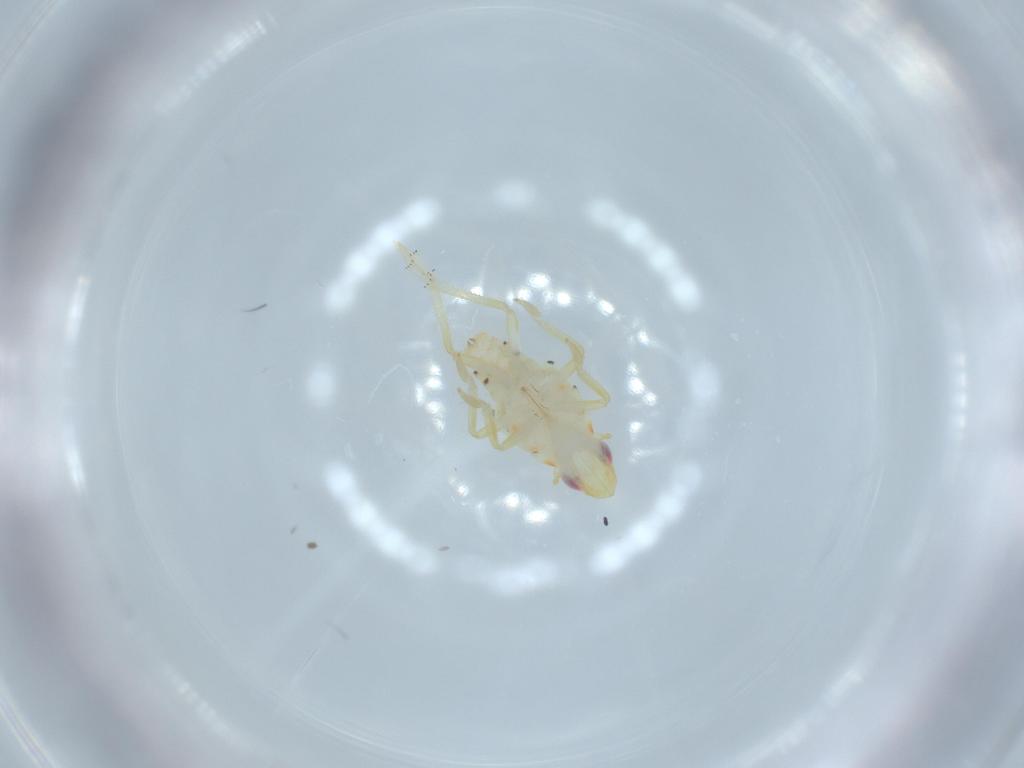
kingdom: Animalia
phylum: Arthropoda
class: Insecta
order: Hemiptera
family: Tropiduchidae
